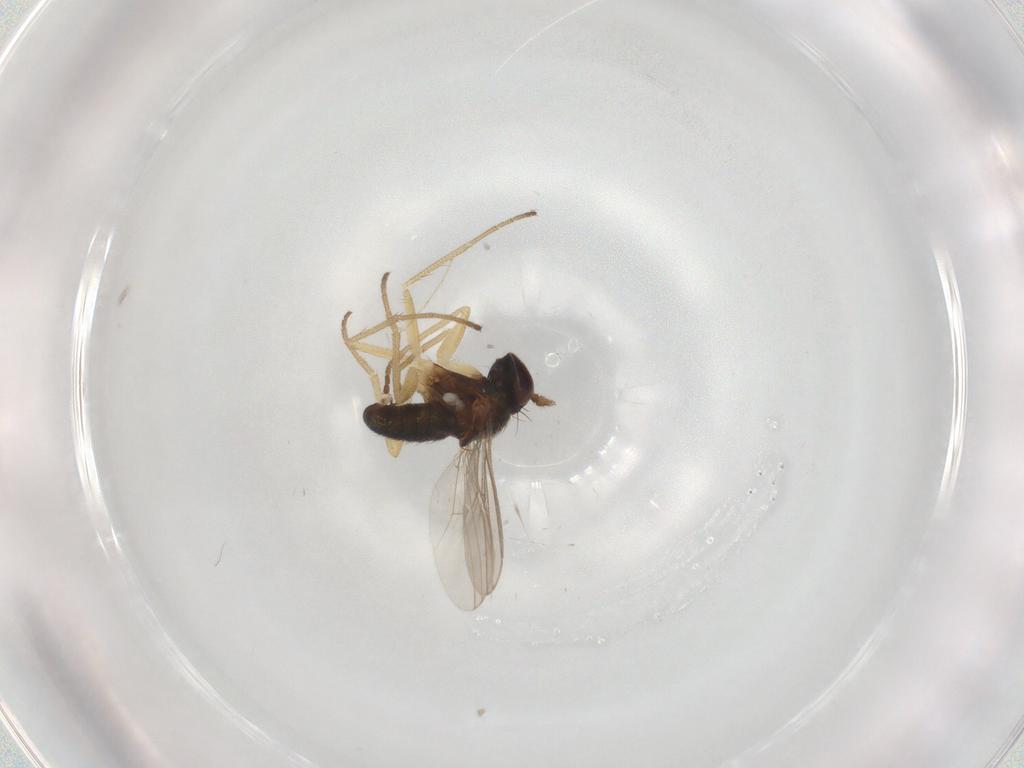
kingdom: Animalia
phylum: Arthropoda
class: Insecta
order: Diptera
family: Dolichopodidae
